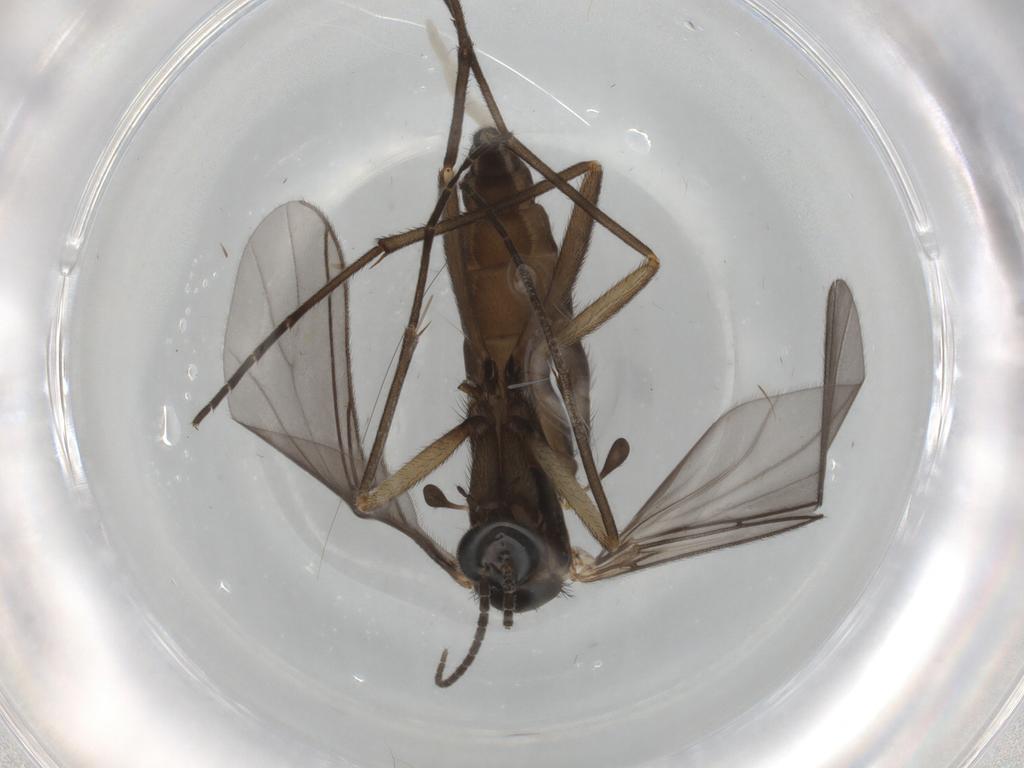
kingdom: Animalia
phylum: Arthropoda
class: Insecta
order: Diptera
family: Sciaridae
